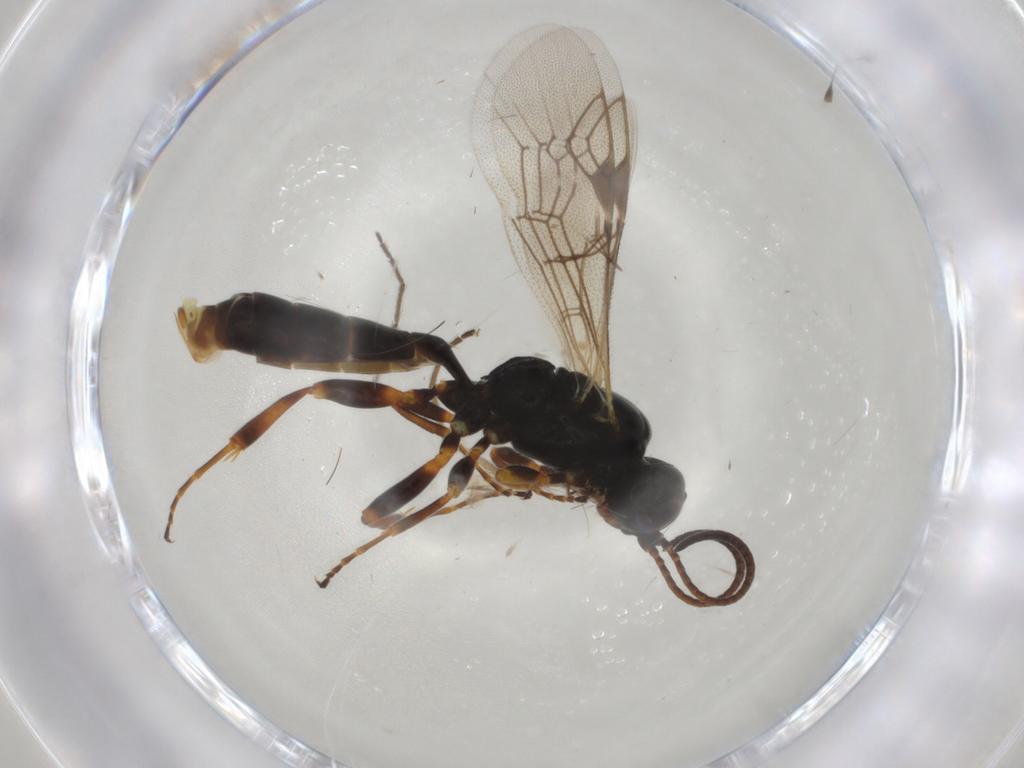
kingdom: Animalia
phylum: Arthropoda
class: Insecta
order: Hymenoptera
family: Ichneumonidae
